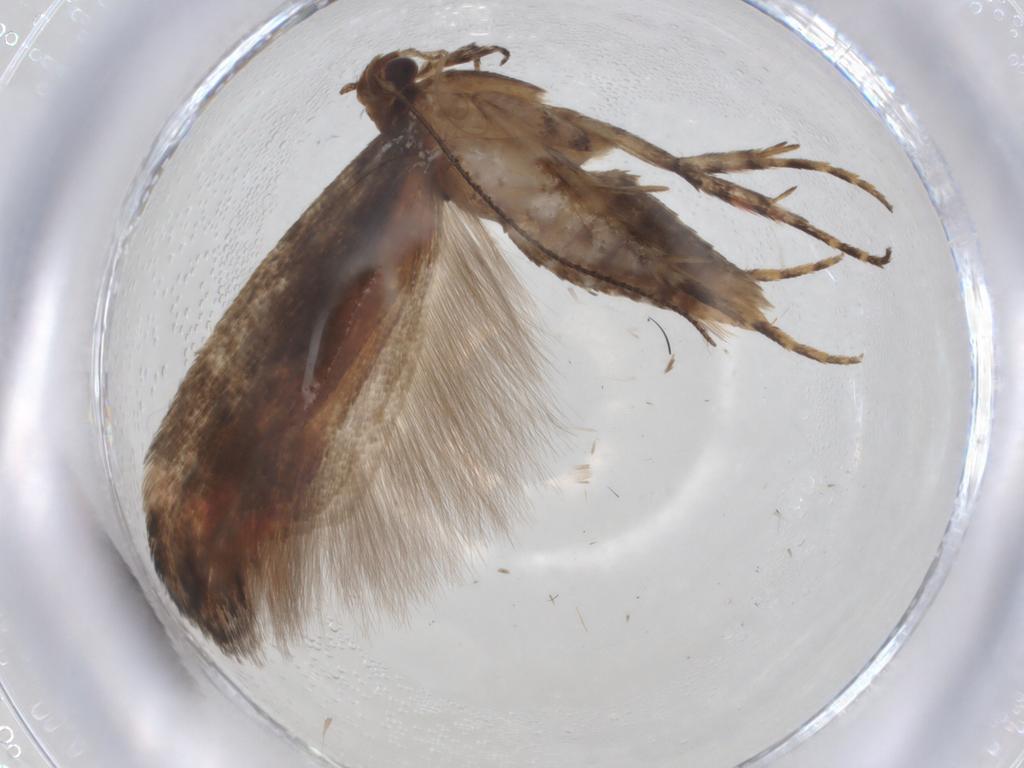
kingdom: Animalia
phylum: Arthropoda
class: Insecta
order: Lepidoptera
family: Gelechiidae
